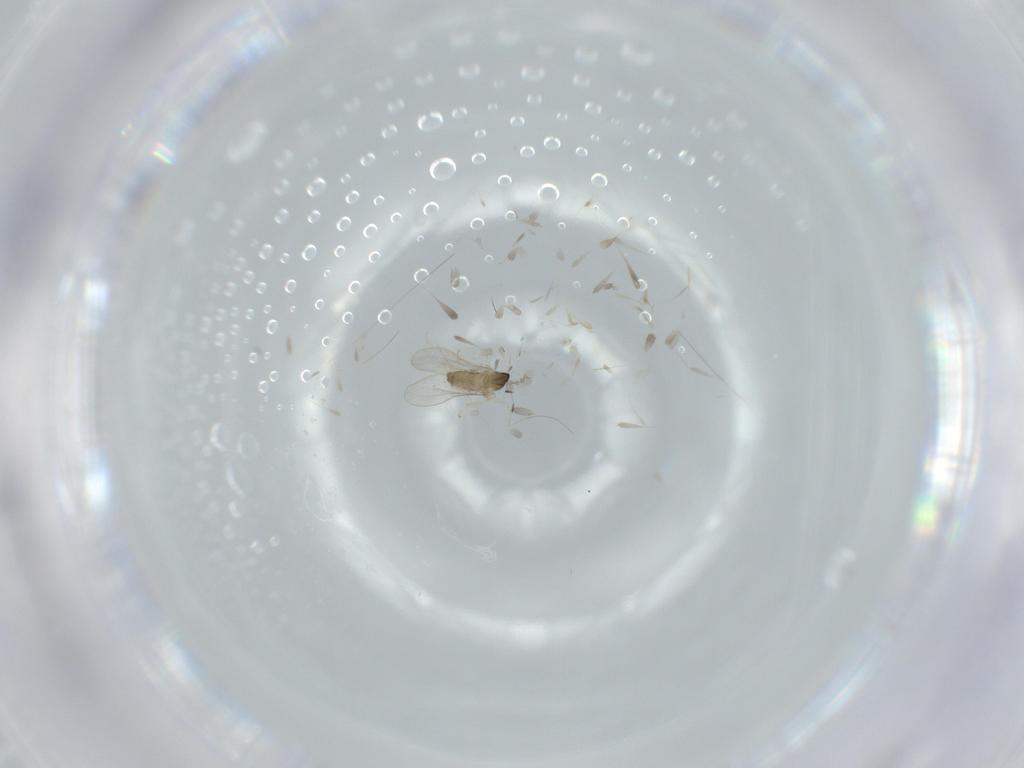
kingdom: Animalia
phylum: Arthropoda
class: Insecta
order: Diptera
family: Cecidomyiidae
